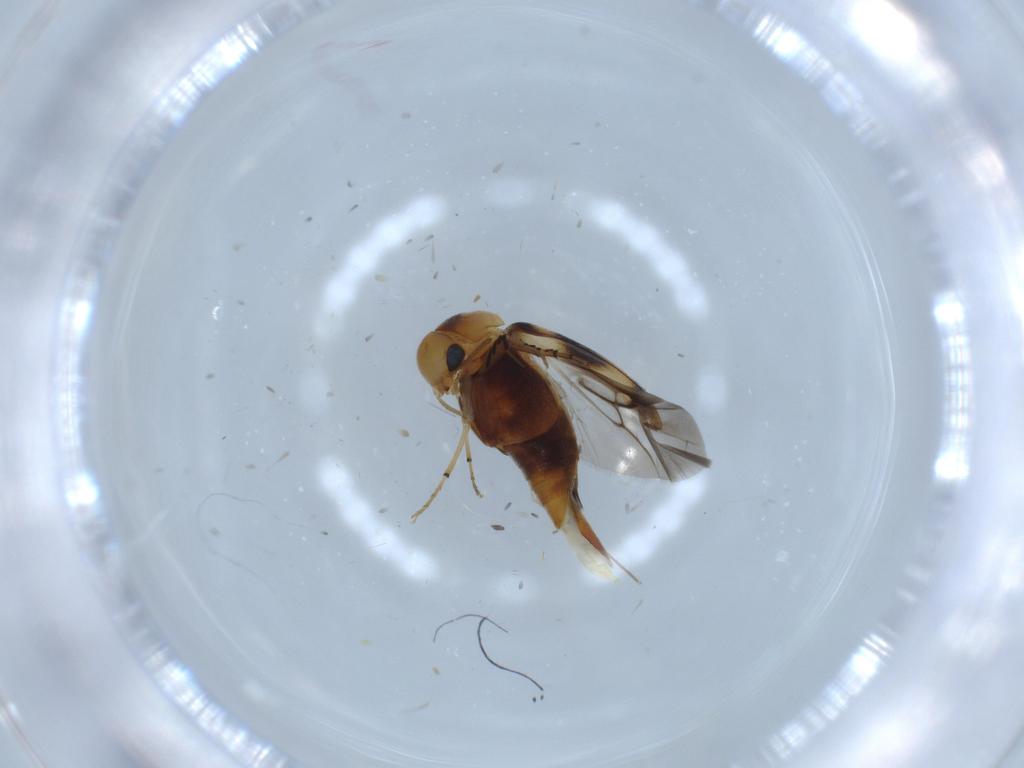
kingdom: Animalia
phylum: Arthropoda
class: Insecta
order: Coleoptera
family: Mordellidae
